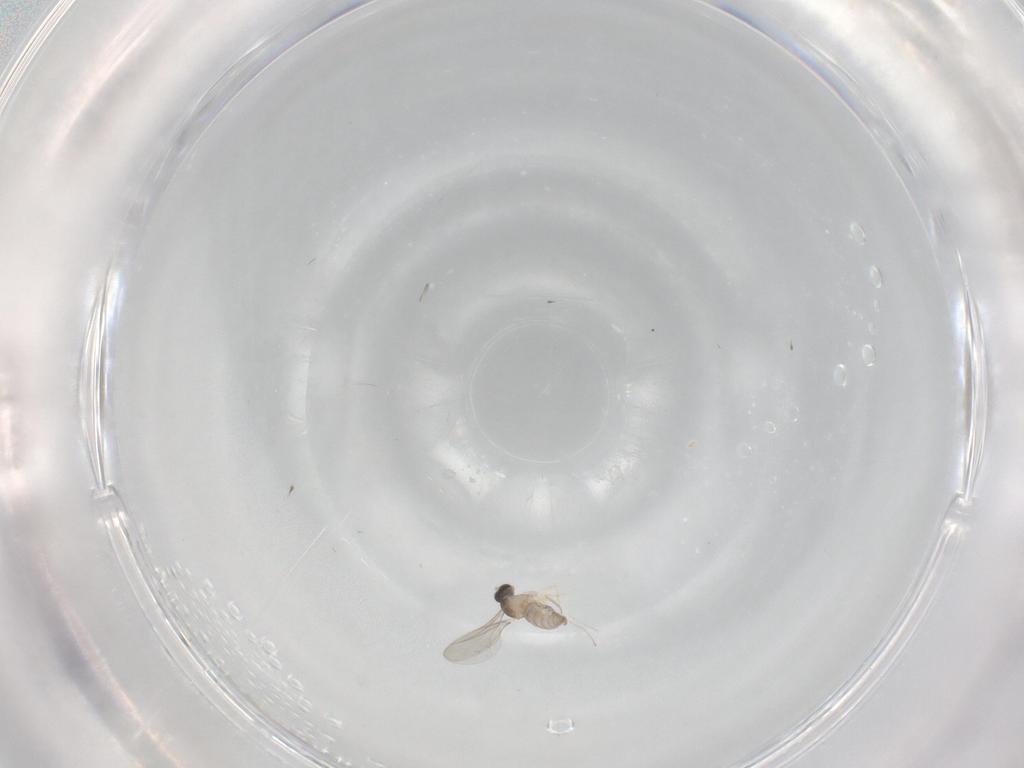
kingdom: Animalia
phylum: Arthropoda
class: Insecta
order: Diptera
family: Cecidomyiidae
